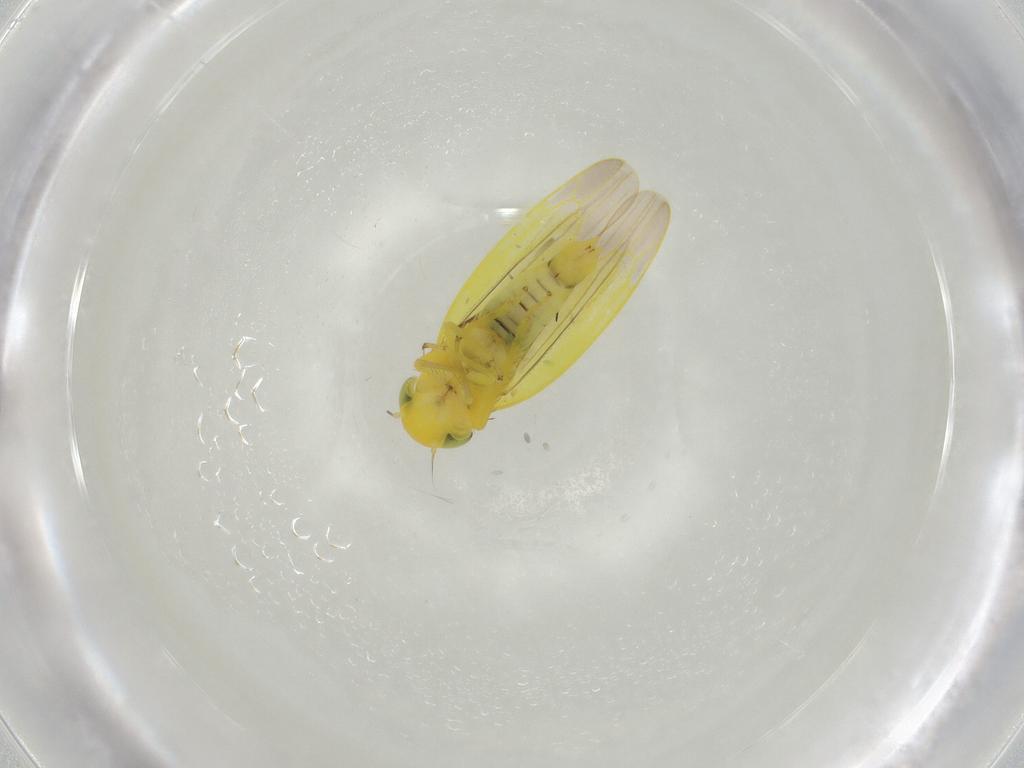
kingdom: Animalia
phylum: Arthropoda
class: Insecta
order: Hemiptera
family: Cicadellidae
